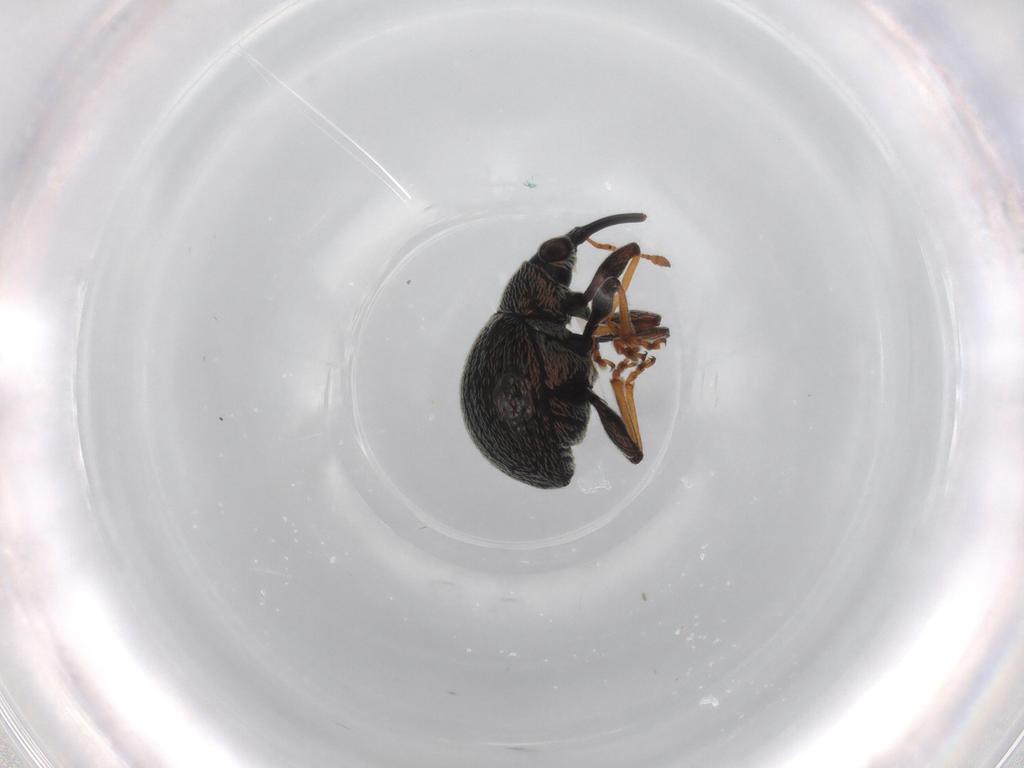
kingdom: Animalia
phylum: Arthropoda
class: Insecta
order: Coleoptera
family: Brentidae
